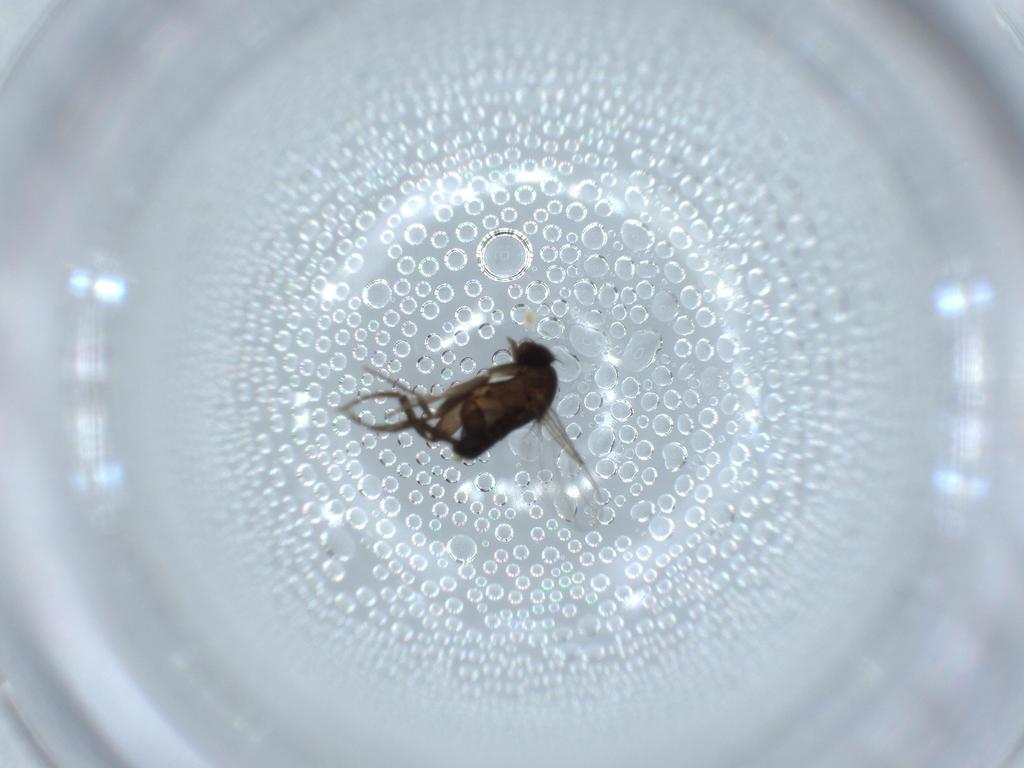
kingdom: Animalia
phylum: Arthropoda
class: Insecta
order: Diptera
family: Phoridae
